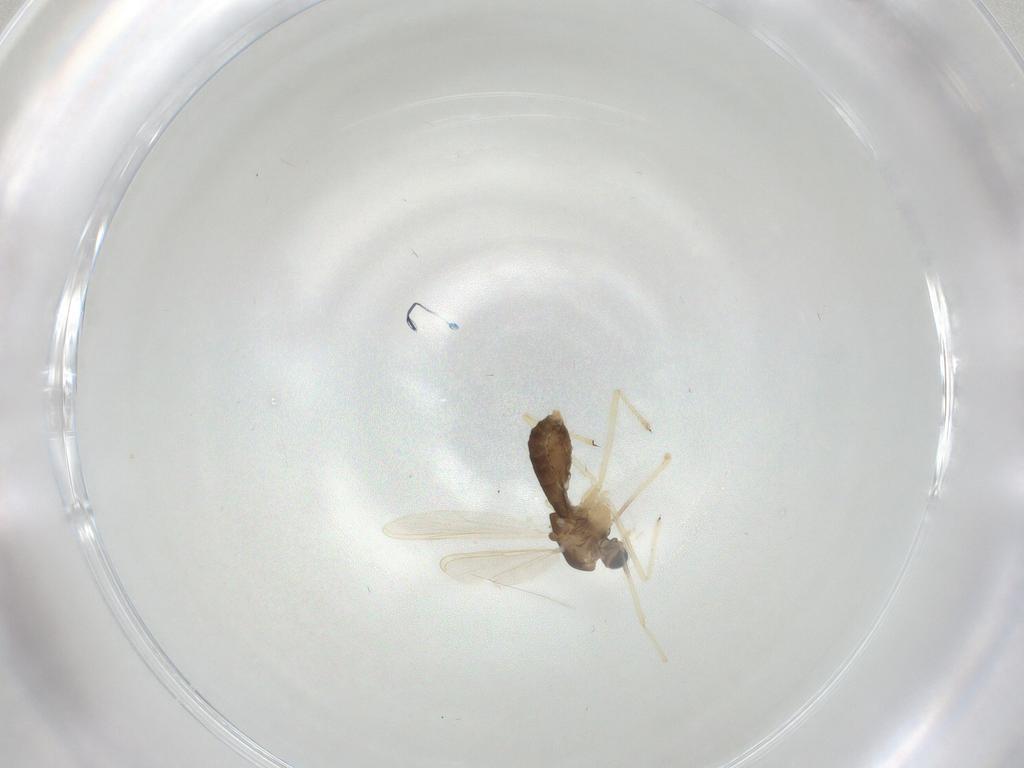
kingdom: Animalia
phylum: Arthropoda
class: Insecta
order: Diptera
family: Chironomidae
